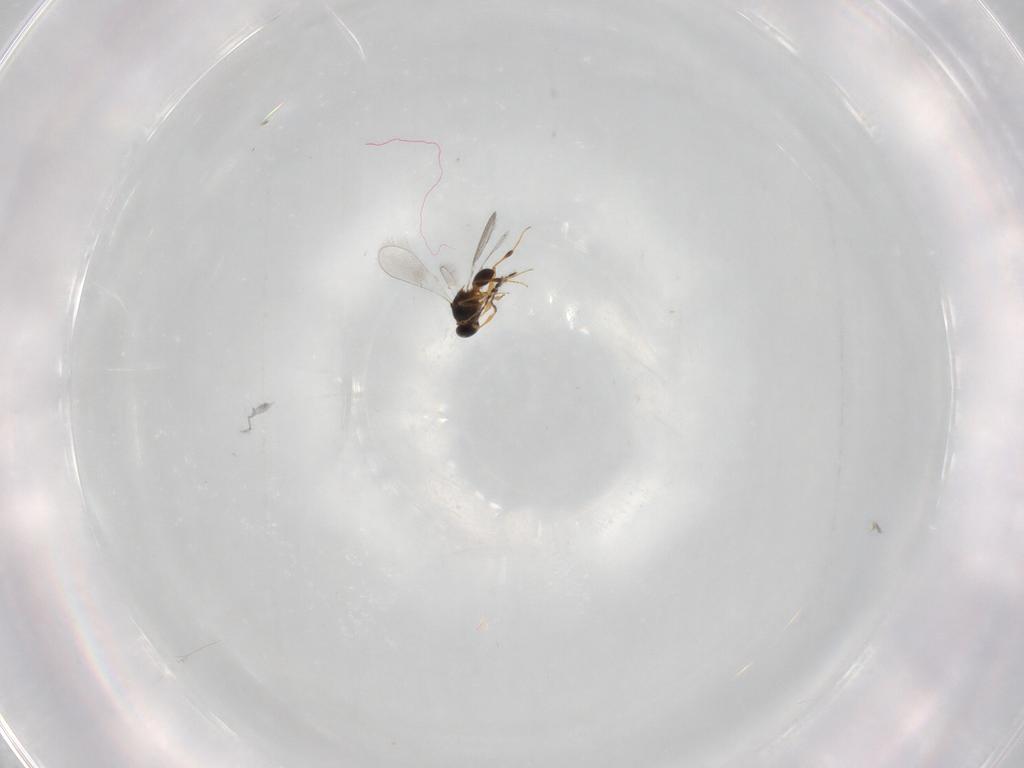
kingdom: Animalia
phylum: Arthropoda
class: Insecta
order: Hymenoptera
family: Platygastridae
